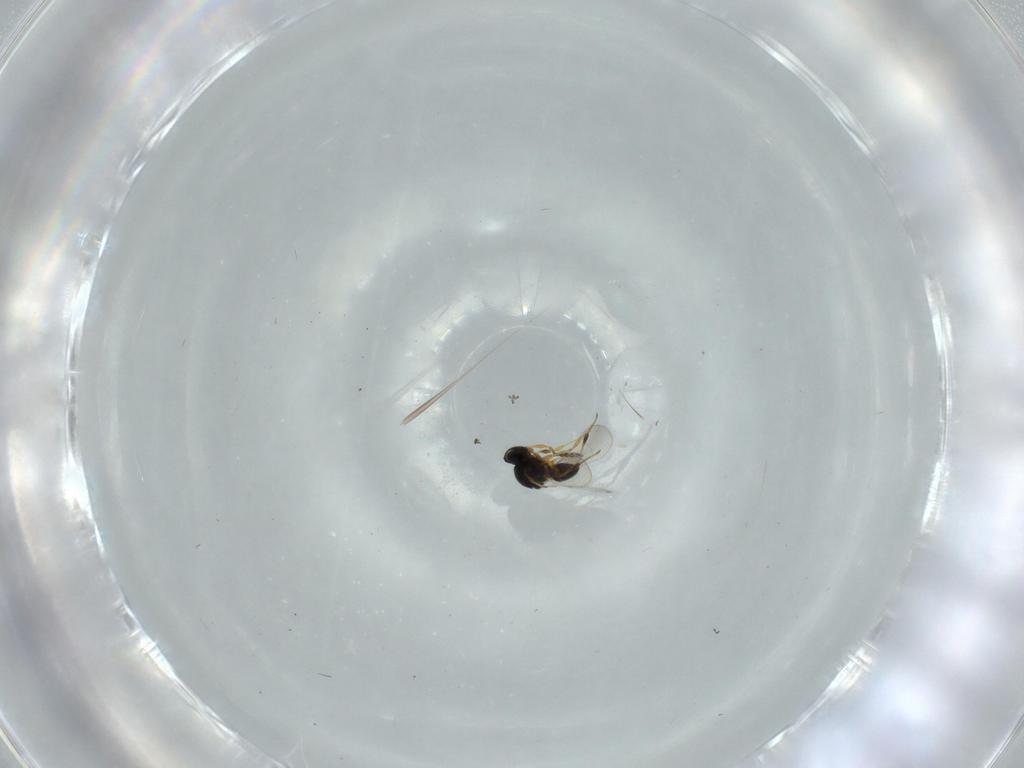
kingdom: Animalia
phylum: Arthropoda
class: Insecta
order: Hymenoptera
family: Platygastridae
